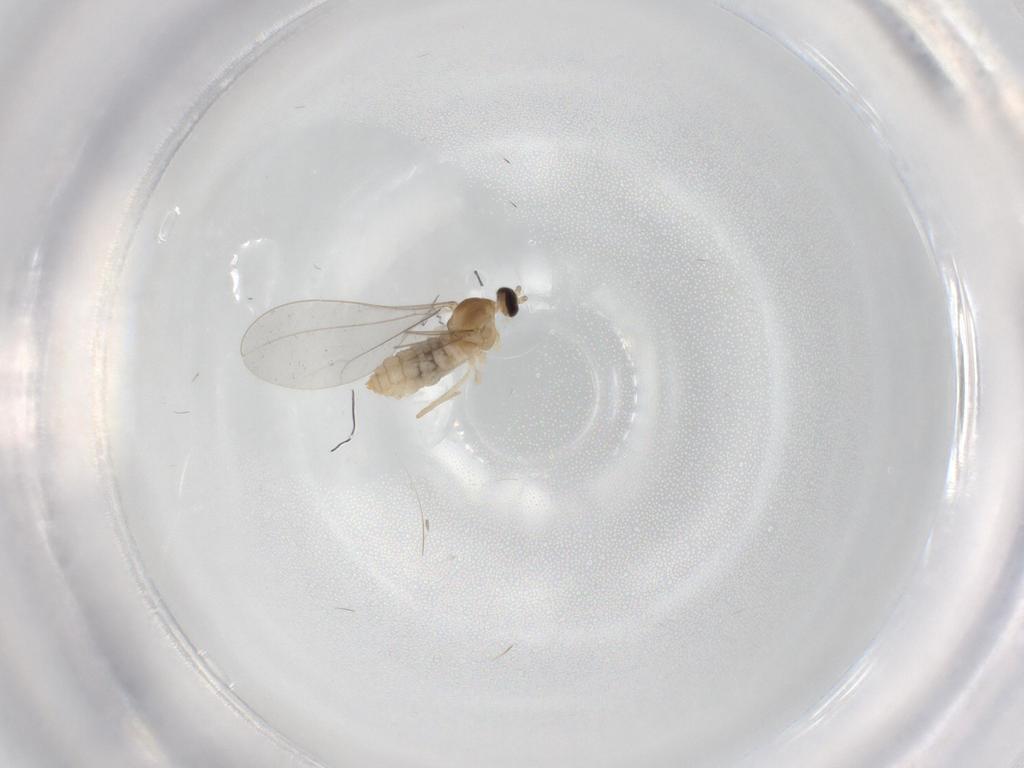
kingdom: Animalia
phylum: Arthropoda
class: Insecta
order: Diptera
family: Cecidomyiidae
